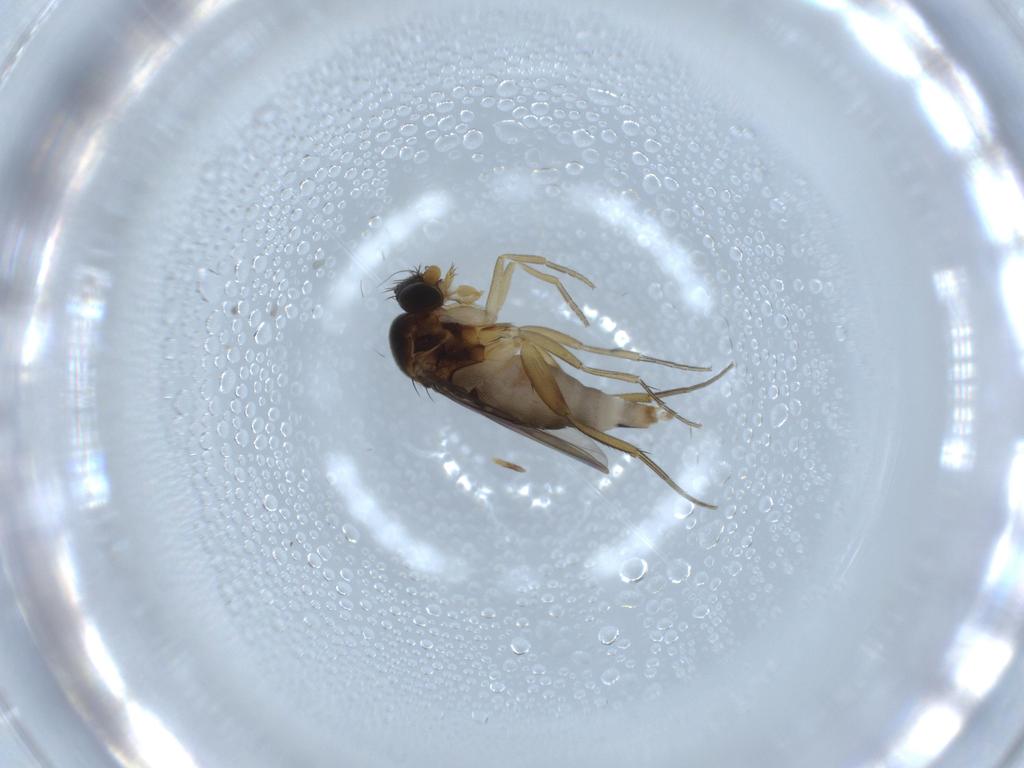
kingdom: Animalia
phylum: Arthropoda
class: Insecta
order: Diptera
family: Phoridae
